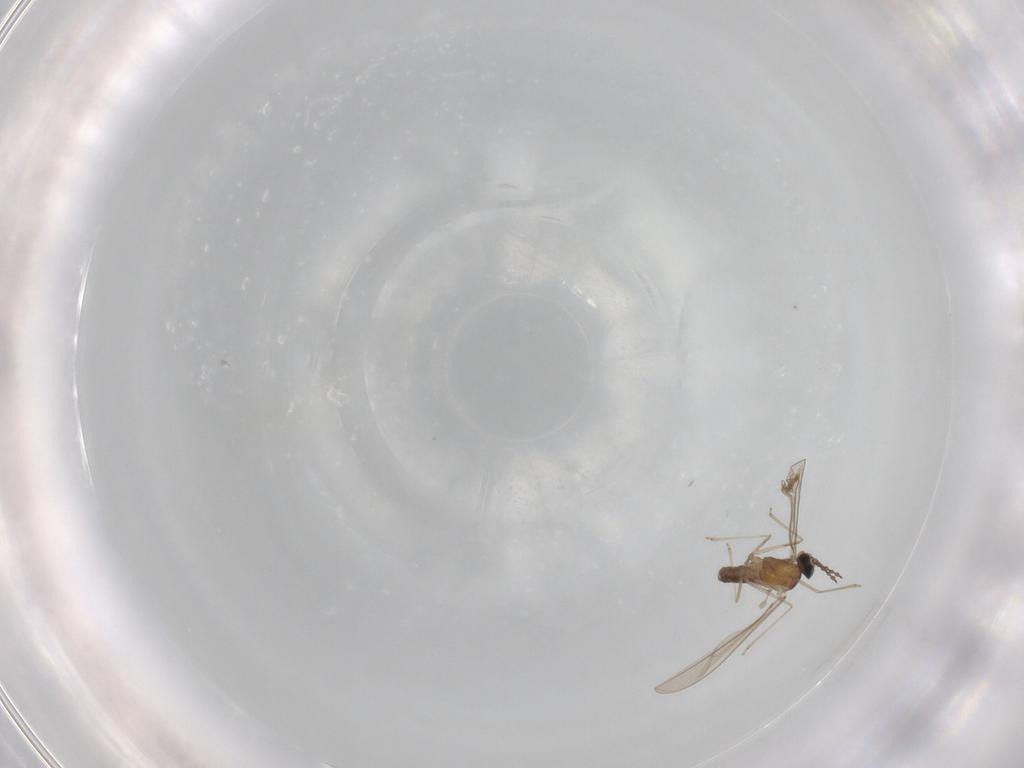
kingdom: Animalia
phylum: Arthropoda
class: Insecta
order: Diptera
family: Cecidomyiidae
